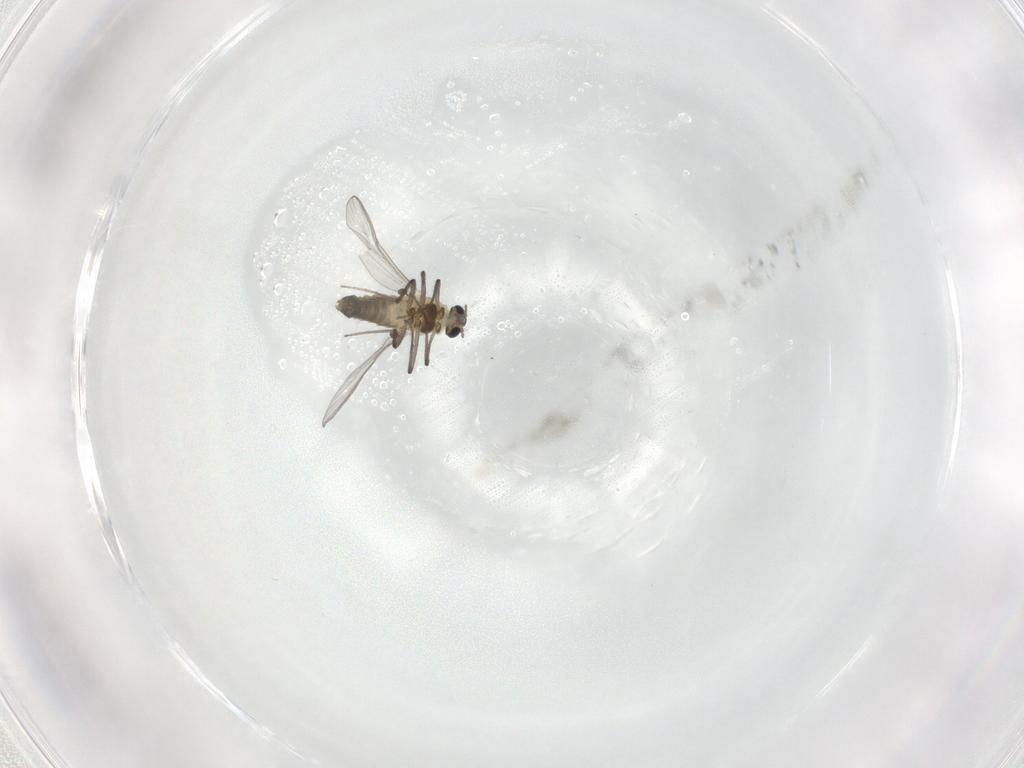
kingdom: Animalia
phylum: Arthropoda
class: Insecta
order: Diptera
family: Chironomidae
